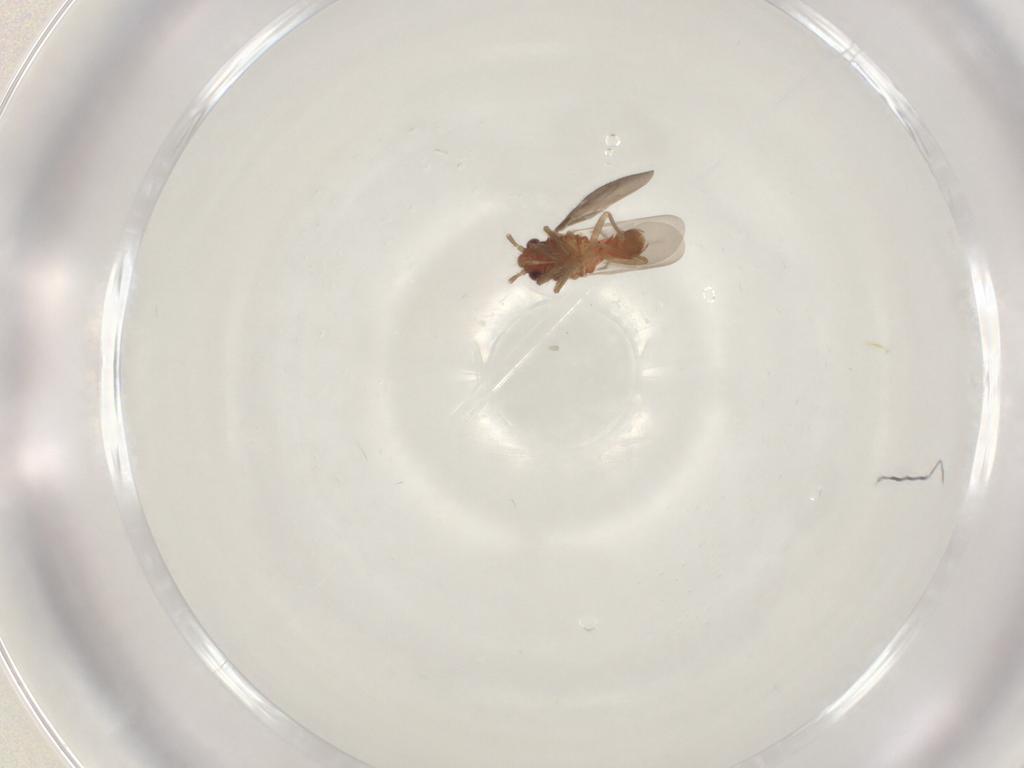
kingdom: Animalia
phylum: Arthropoda
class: Insecta
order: Hemiptera
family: Ceratocombidae
